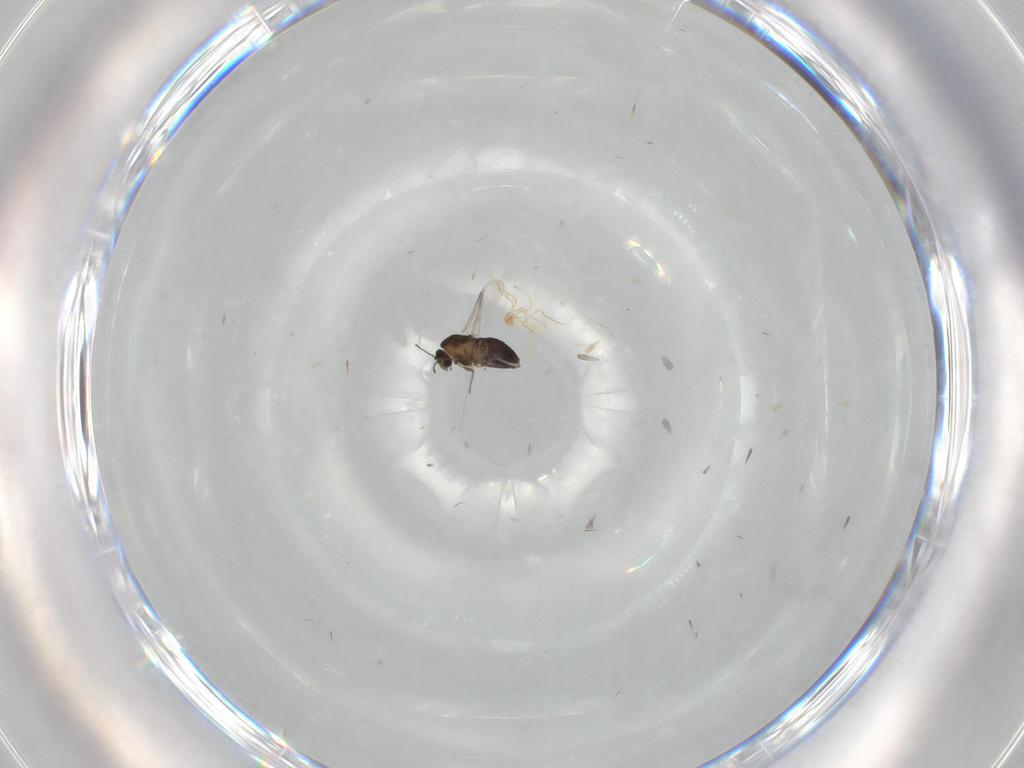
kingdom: Animalia
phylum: Arthropoda
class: Insecta
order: Diptera
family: Chironomidae
